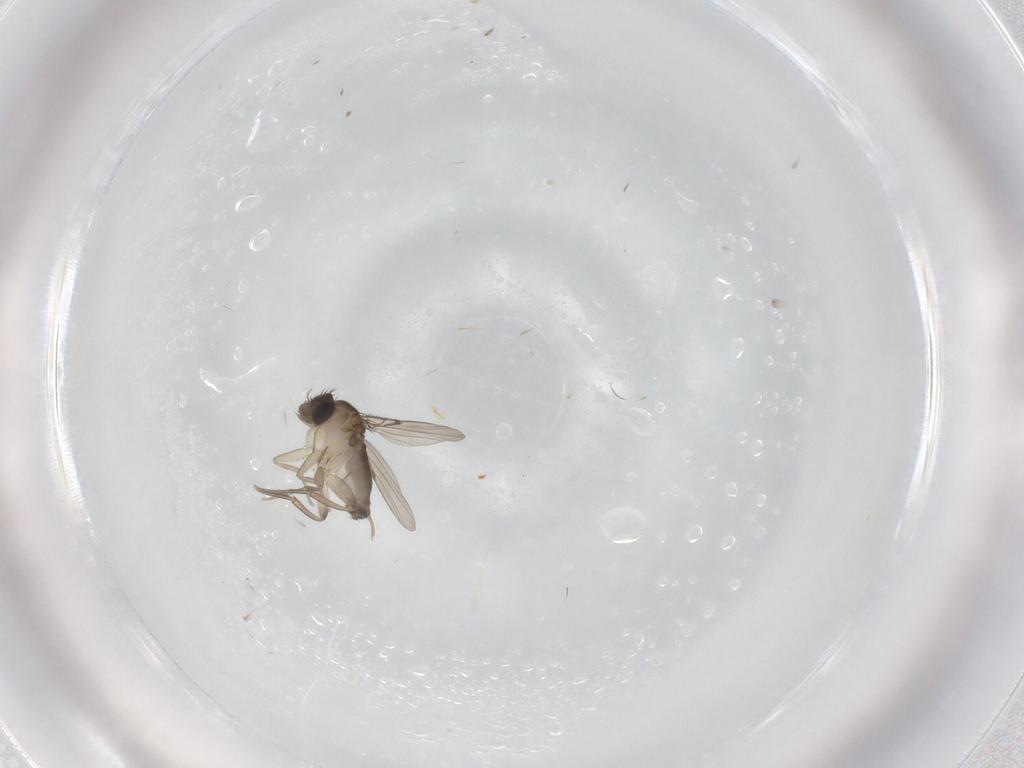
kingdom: Animalia
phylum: Arthropoda
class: Insecta
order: Diptera
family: Phoridae
